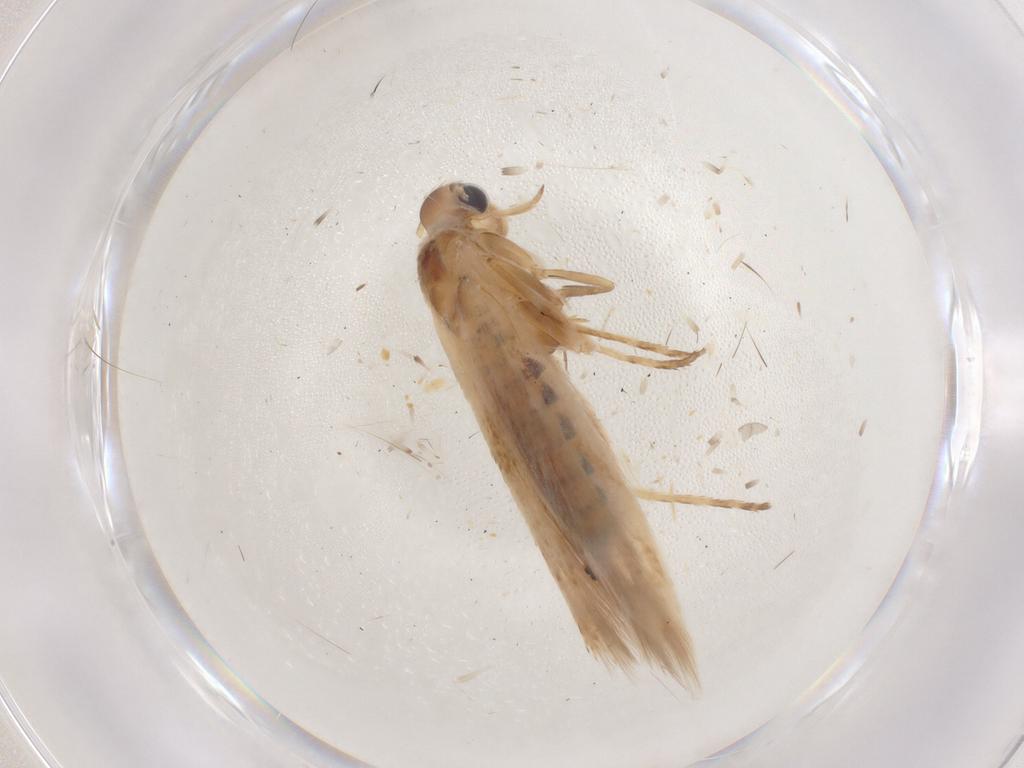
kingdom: Animalia
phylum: Arthropoda
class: Insecta
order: Lepidoptera
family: Scythrididae
